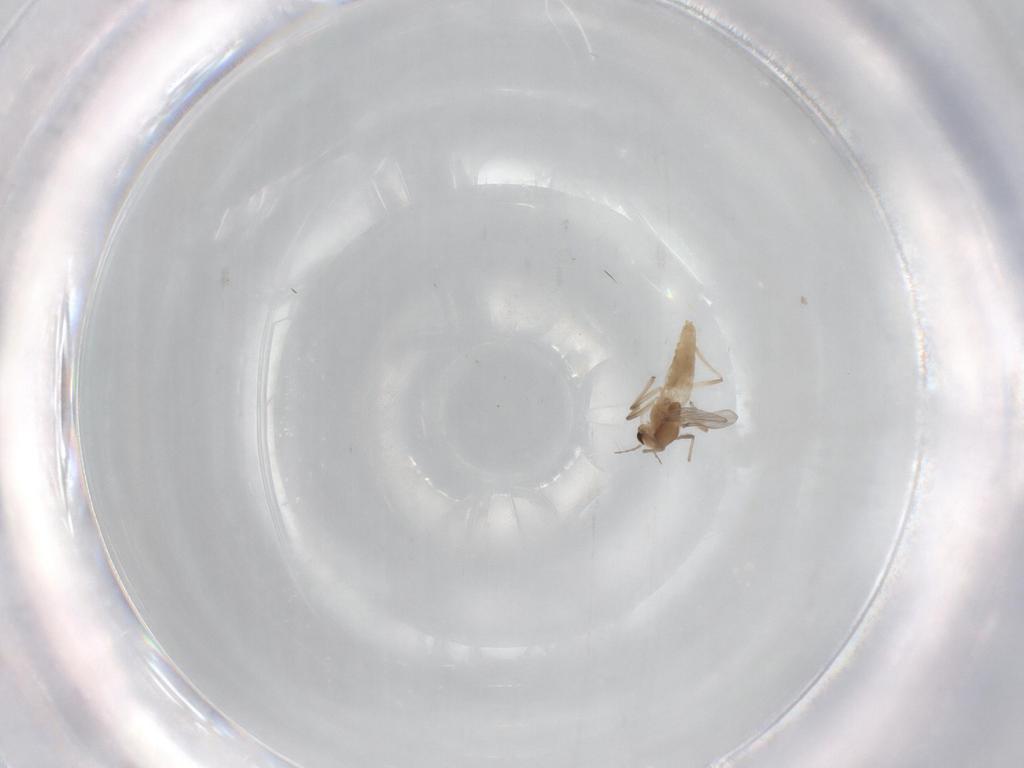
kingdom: Animalia
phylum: Arthropoda
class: Insecta
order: Diptera
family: Chironomidae
